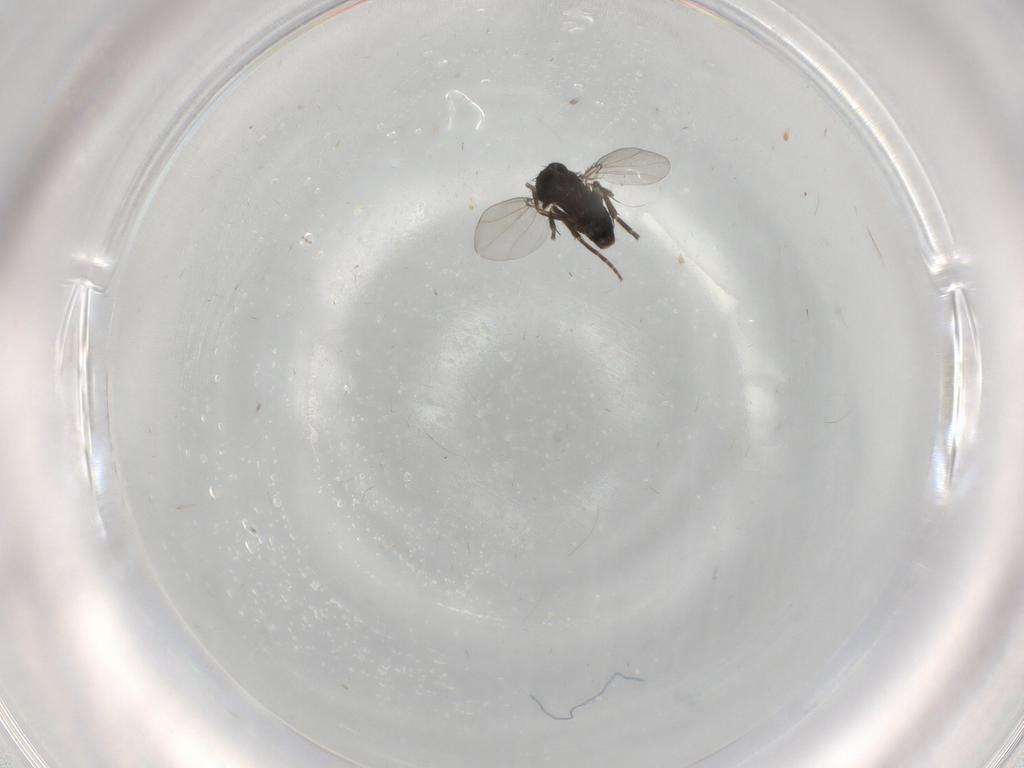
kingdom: Animalia
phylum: Arthropoda
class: Insecta
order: Diptera
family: Phoridae
